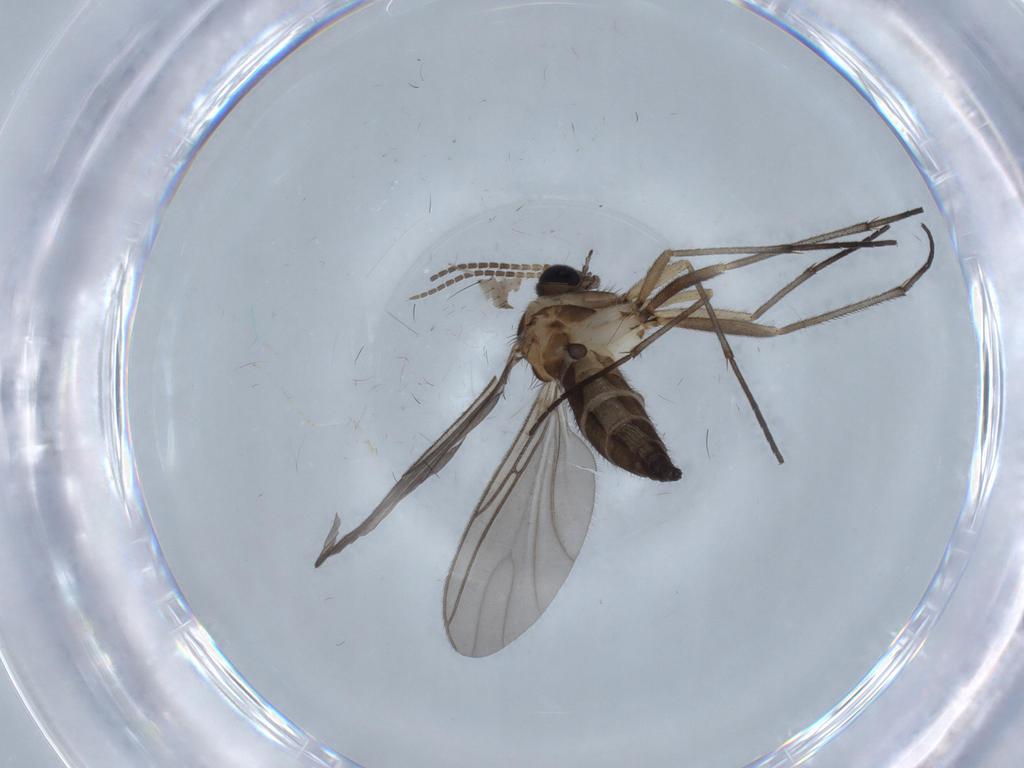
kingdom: Animalia
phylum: Arthropoda
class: Insecta
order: Diptera
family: Sciaridae
